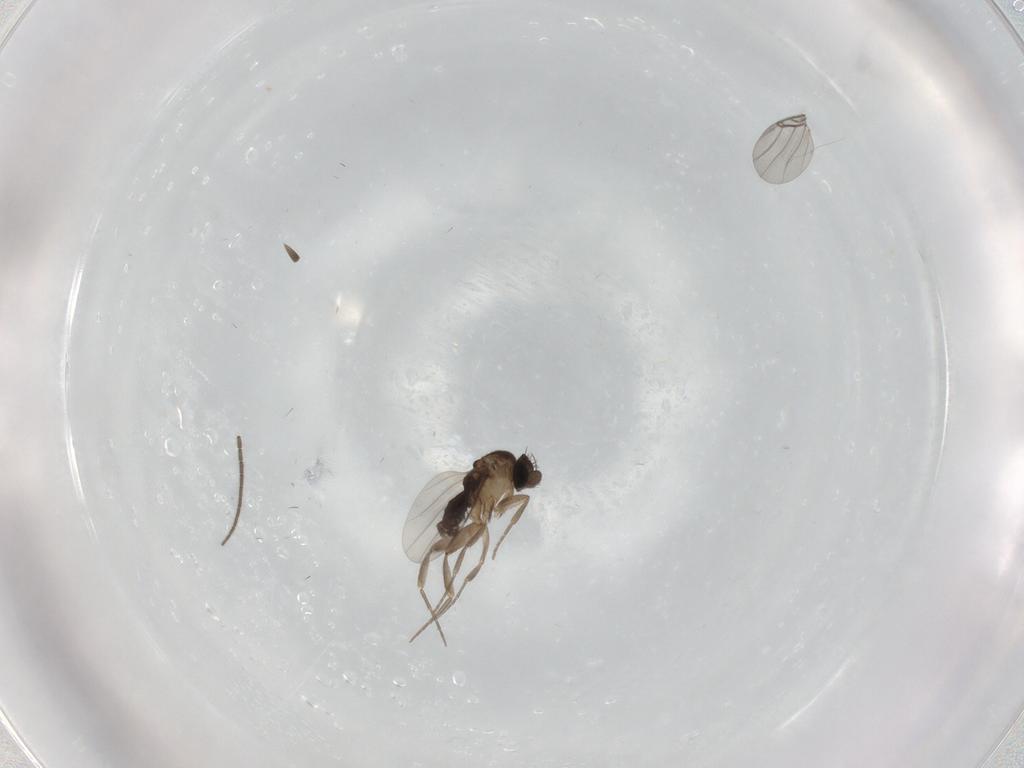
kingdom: Animalia
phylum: Arthropoda
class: Insecta
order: Diptera
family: Sciaridae
